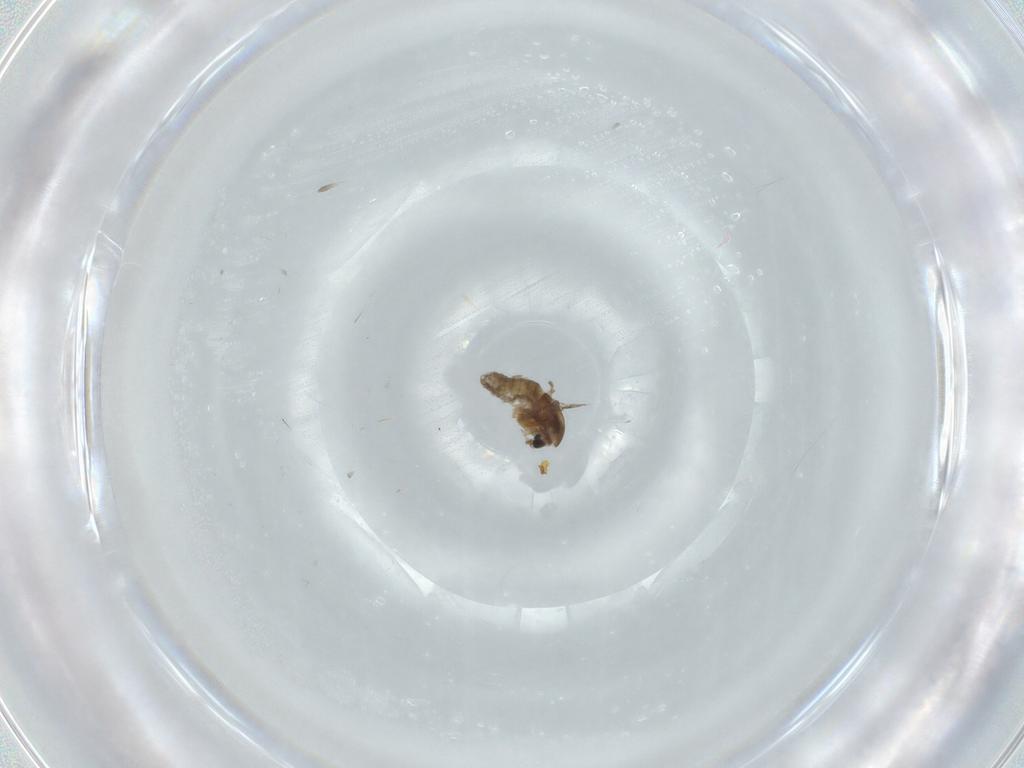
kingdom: Animalia
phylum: Arthropoda
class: Insecta
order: Diptera
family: Chironomidae
